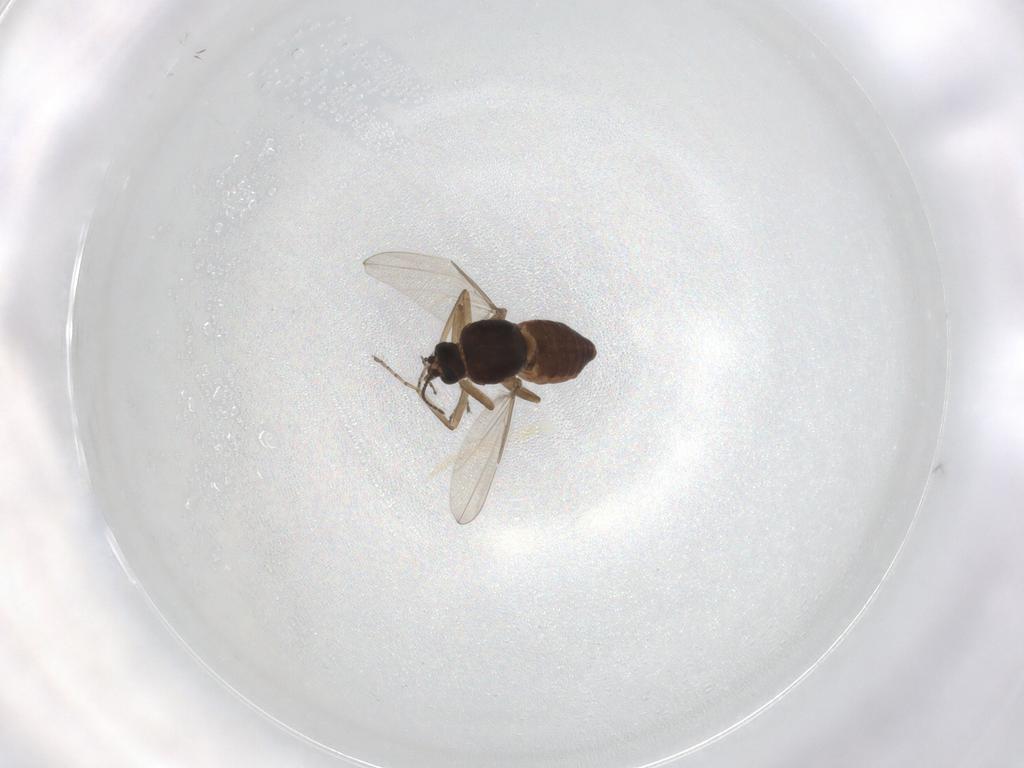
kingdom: Animalia
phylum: Arthropoda
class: Insecta
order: Diptera
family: Ceratopogonidae
